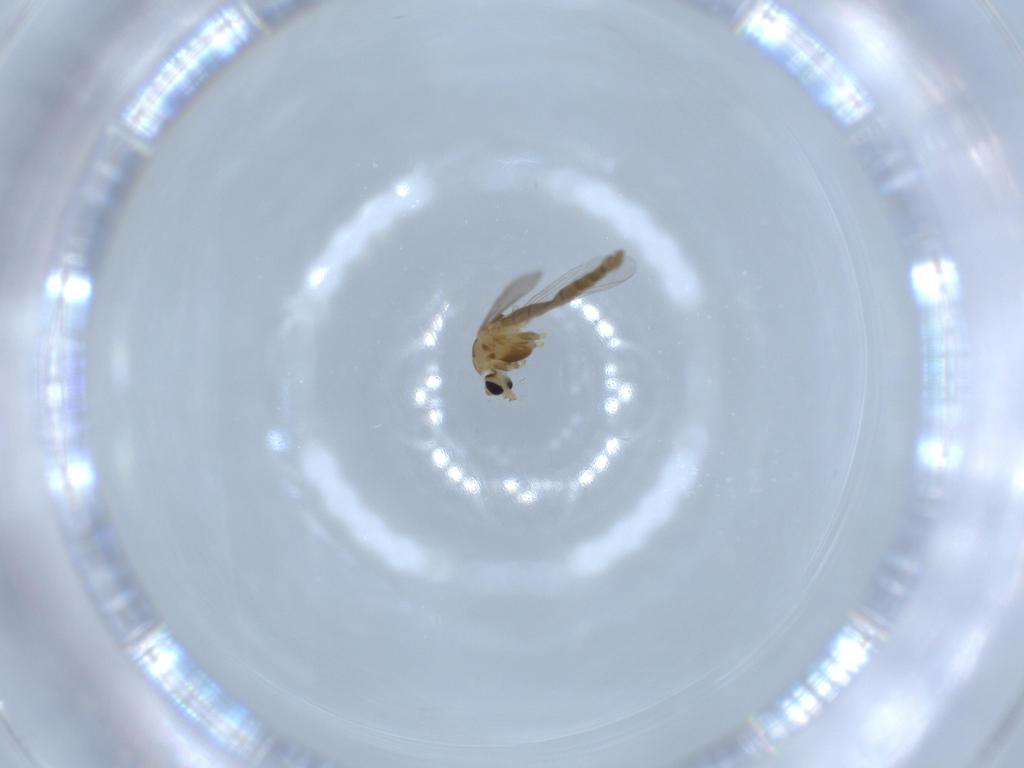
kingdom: Animalia
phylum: Arthropoda
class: Insecta
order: Diptera
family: Chironomidae
